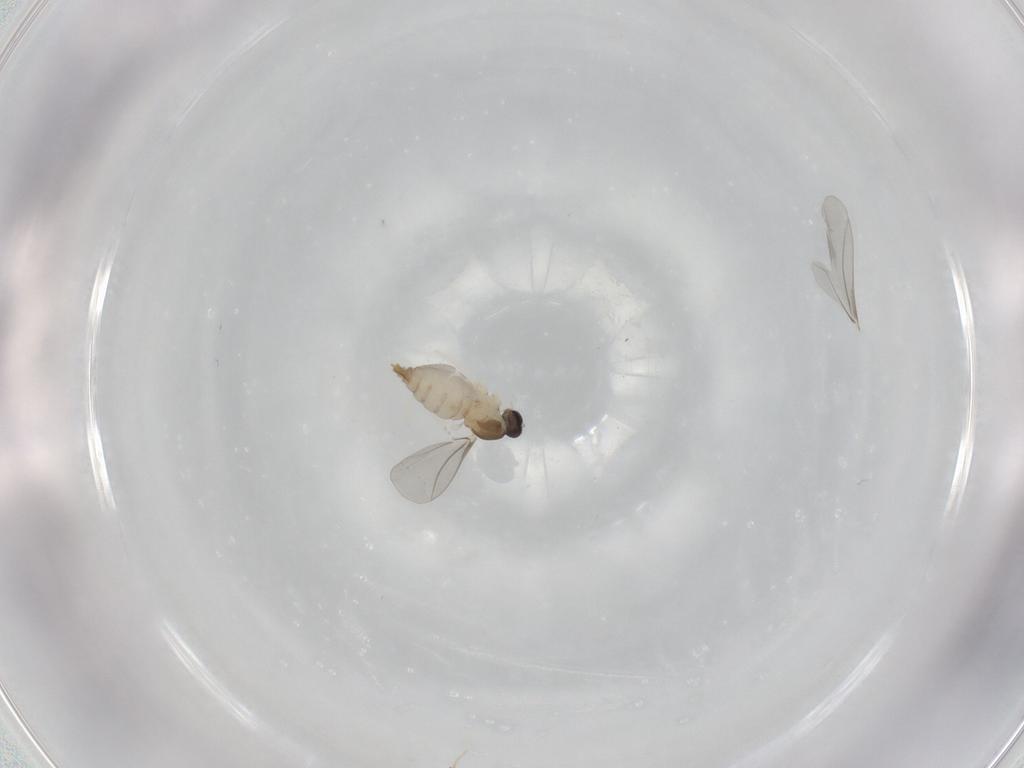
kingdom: Animalia
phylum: Arthropoda
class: Insecta
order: Diptera
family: Cecidomyiidae
